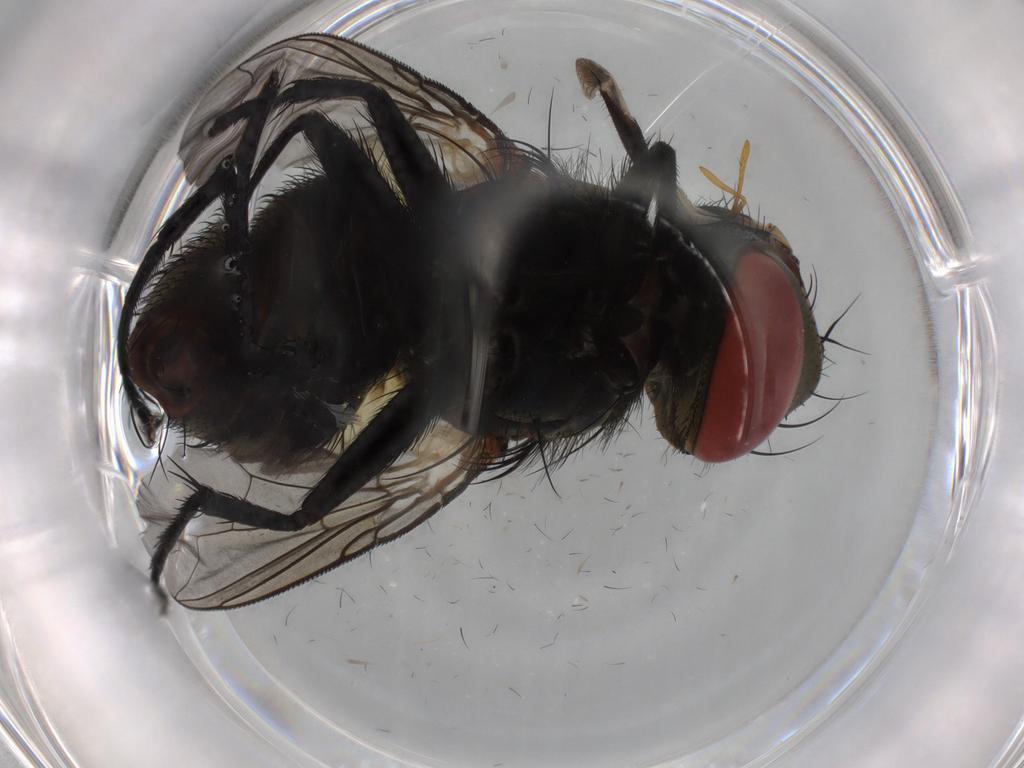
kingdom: Animalia
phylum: Arthropoda
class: Insecta
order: Diptera
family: Sarcophagidae
